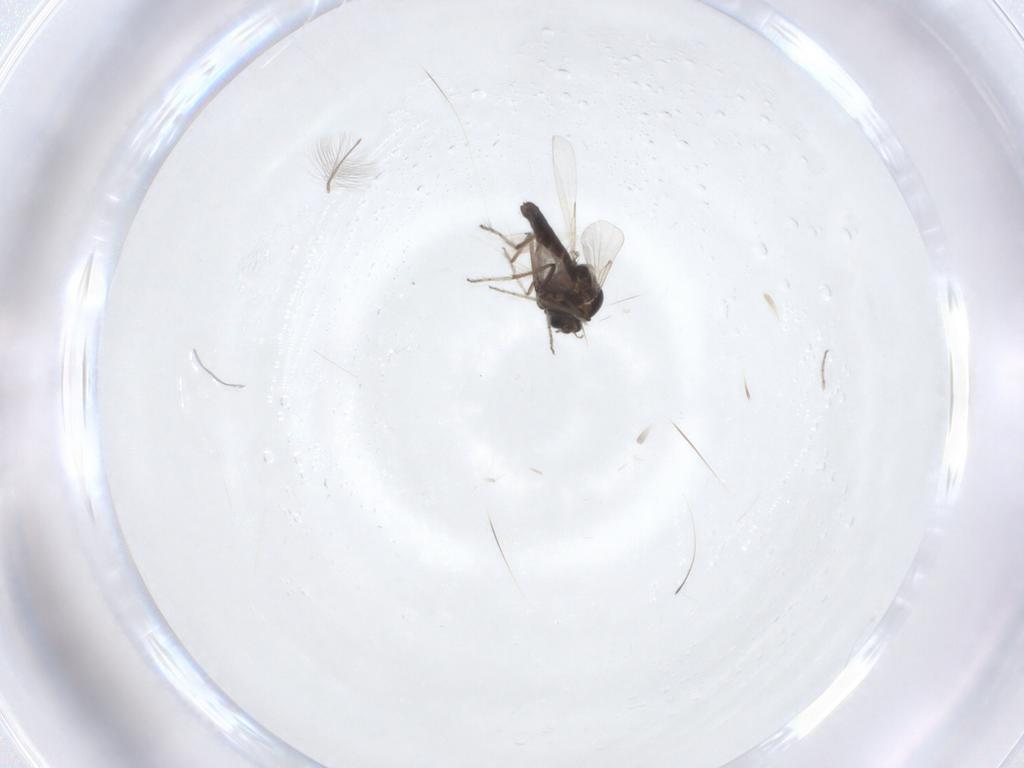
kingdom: Animalia
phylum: Arthropoda
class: Insecta
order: Diptera
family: Ceratopogonidae
